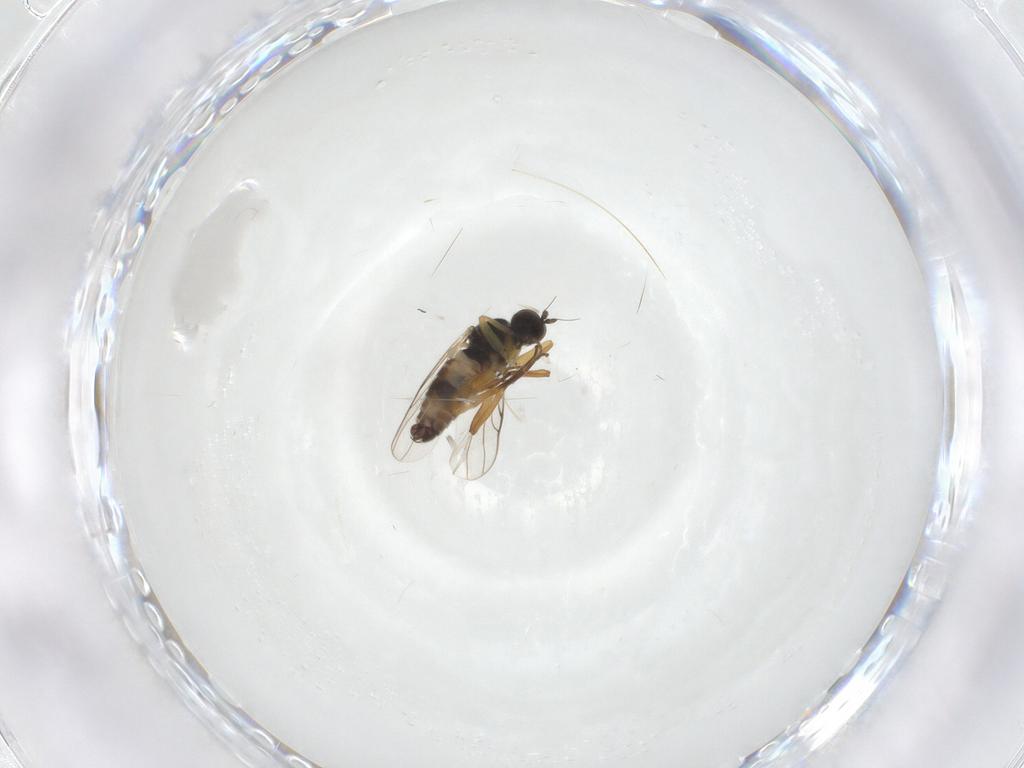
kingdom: Animalia
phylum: Arthropoda
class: Insecta
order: Diptera
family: Hybotidae
